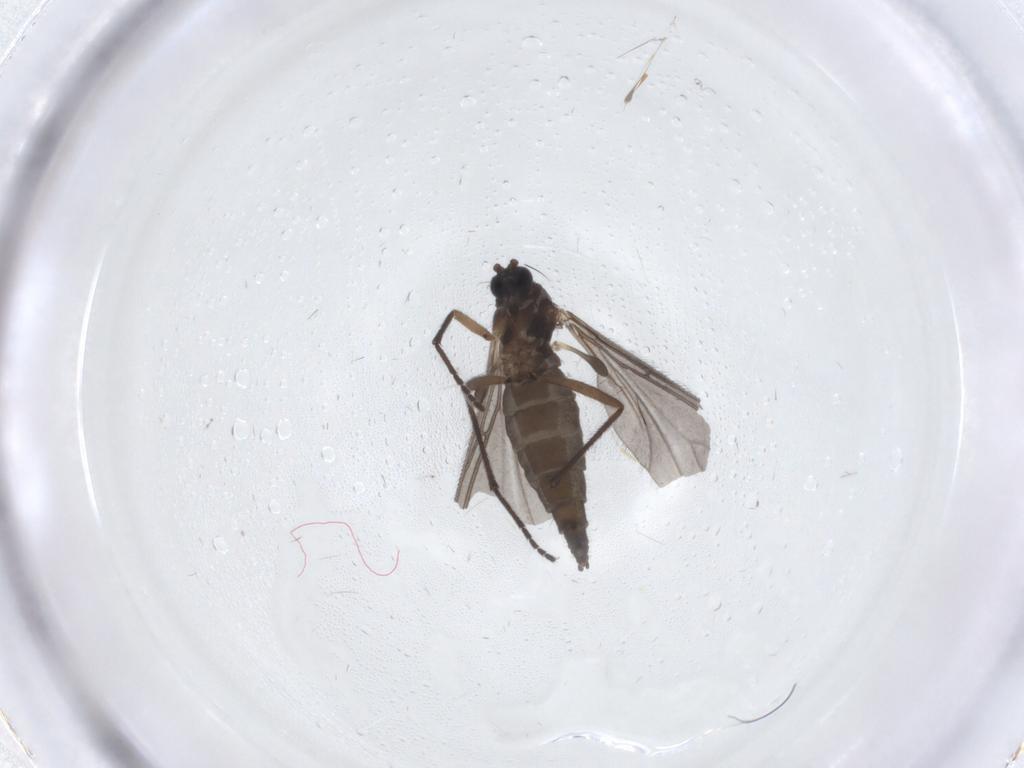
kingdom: Animalia
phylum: Arthropoda
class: Insecta
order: Diptera
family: Sciaridae
